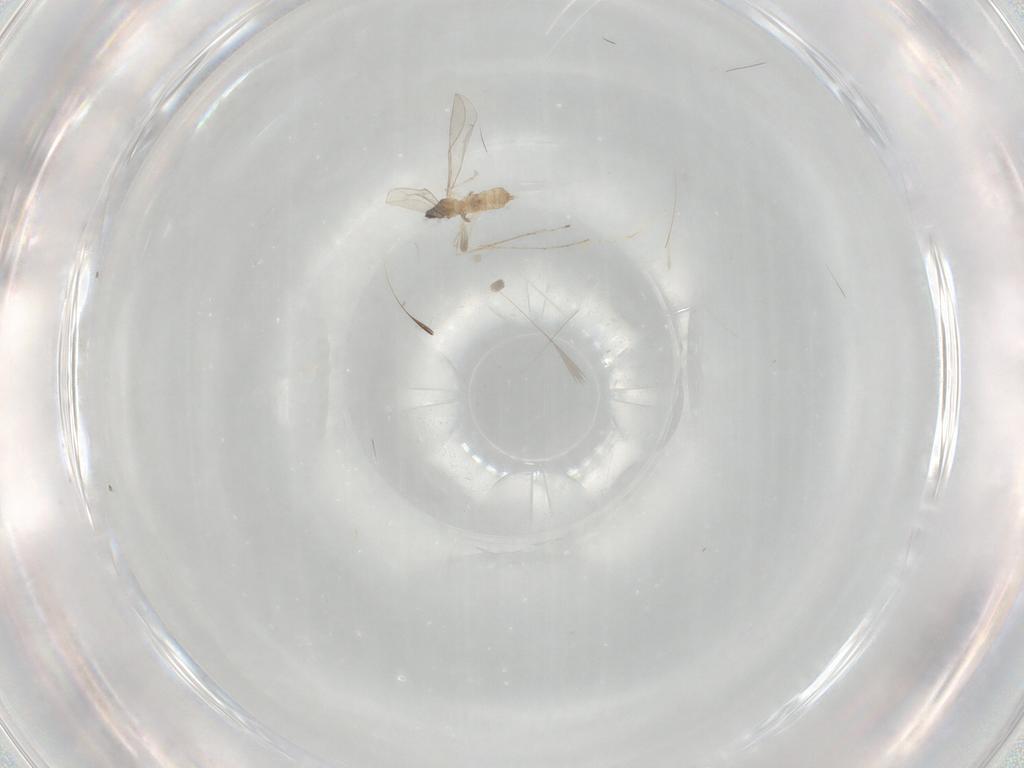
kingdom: Animalia
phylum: Arthropoda
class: Insecta
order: Diptera
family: Cecidomyiidae
